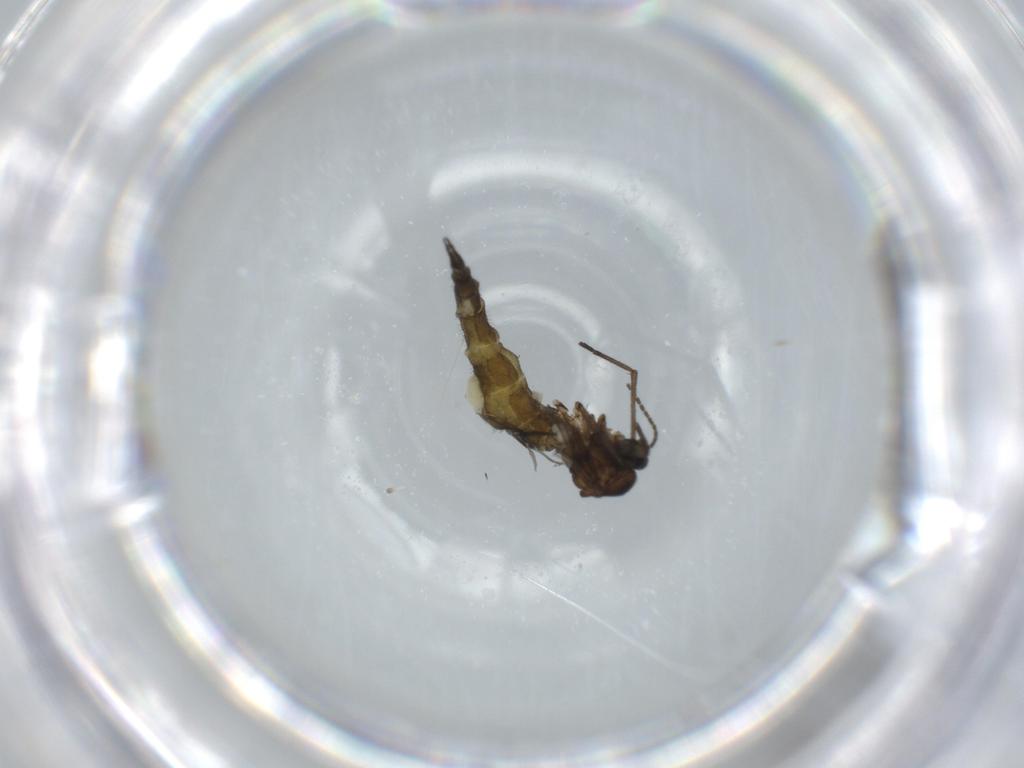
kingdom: Animalia
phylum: Arthropoda
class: Insecta
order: Diptera
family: Sciaridae
